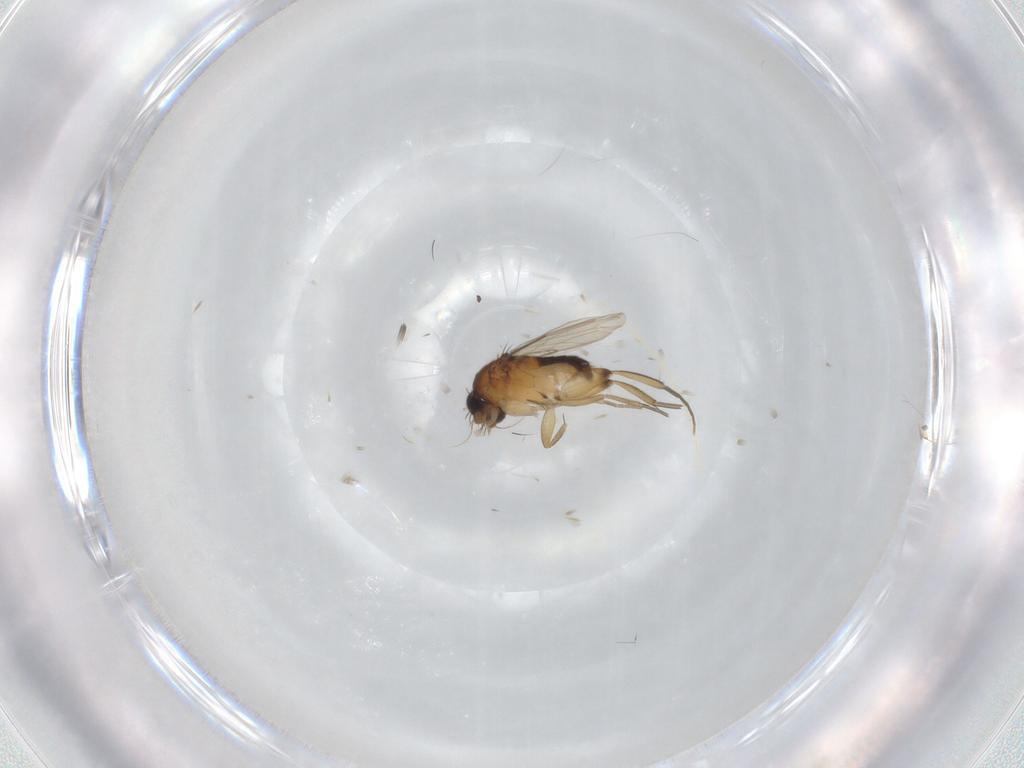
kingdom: Animalia
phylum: Arthropoda
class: Insecta
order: Diptera
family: Phoridae
